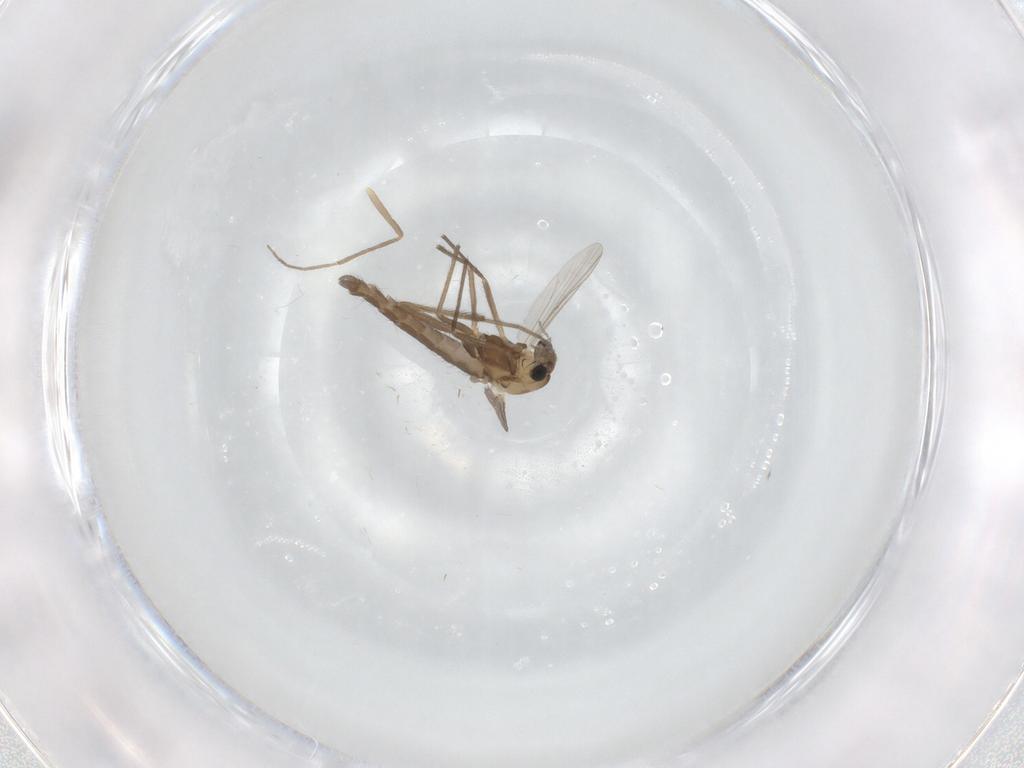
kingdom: Animalia
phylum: Arthropoda
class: Insecta
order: Diptera
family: Chironomidae
